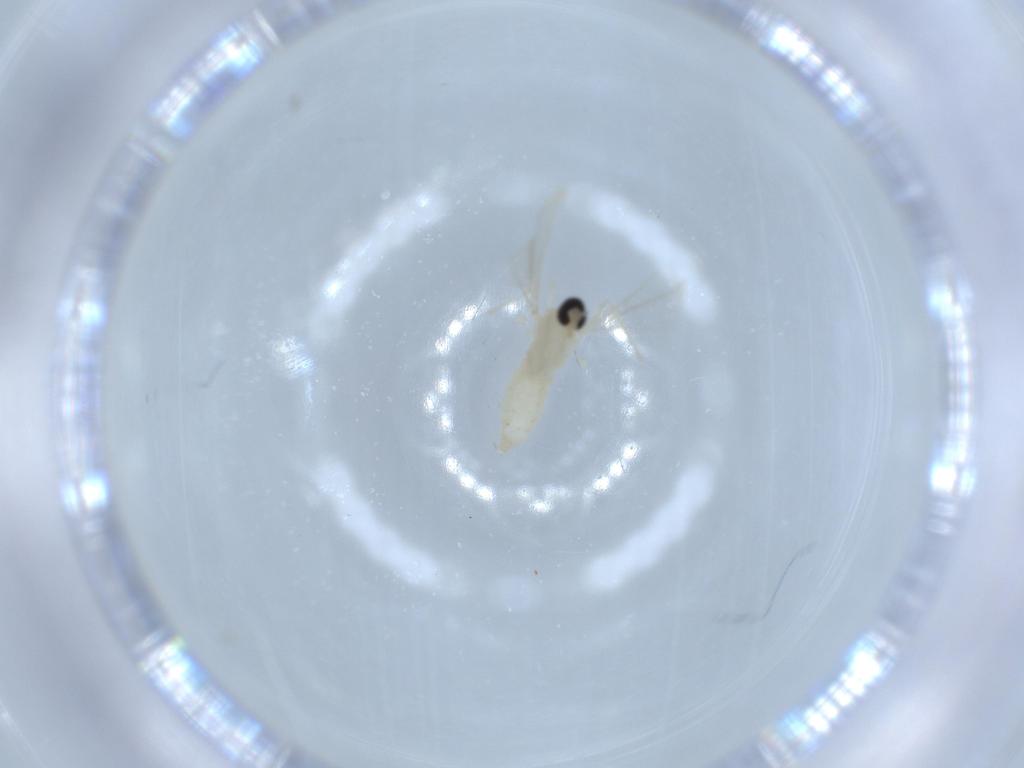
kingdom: Animalia
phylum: Arthropoda
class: Insecta
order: Diptera
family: Cecidomyiidae
